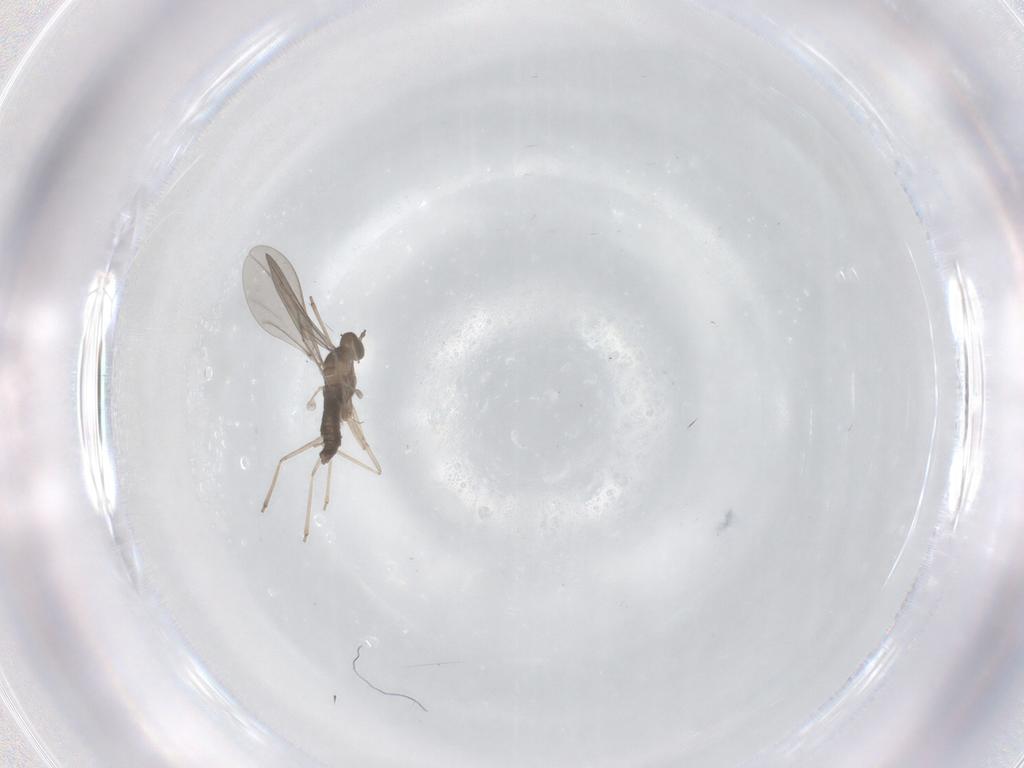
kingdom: Animalia
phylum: Arthropoda
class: Insecta
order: Diptera
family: Cecidomyiidae
